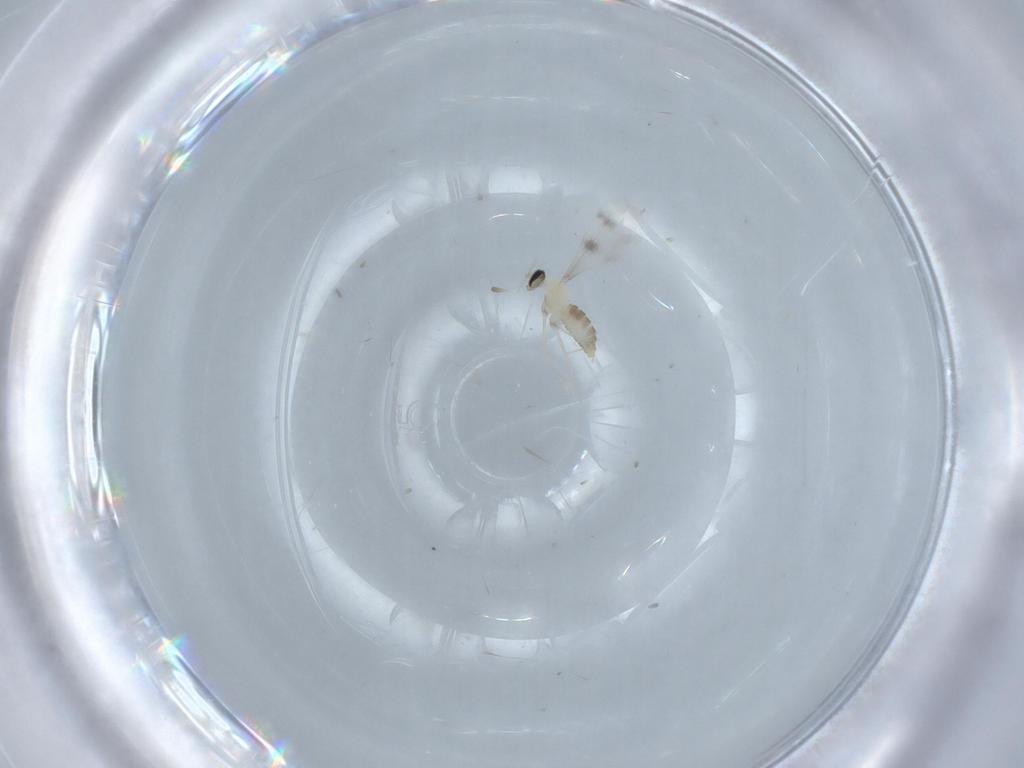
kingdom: Animalia
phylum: Arthropoda
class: Insecta
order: Diptera
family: Cecidomyiidae
